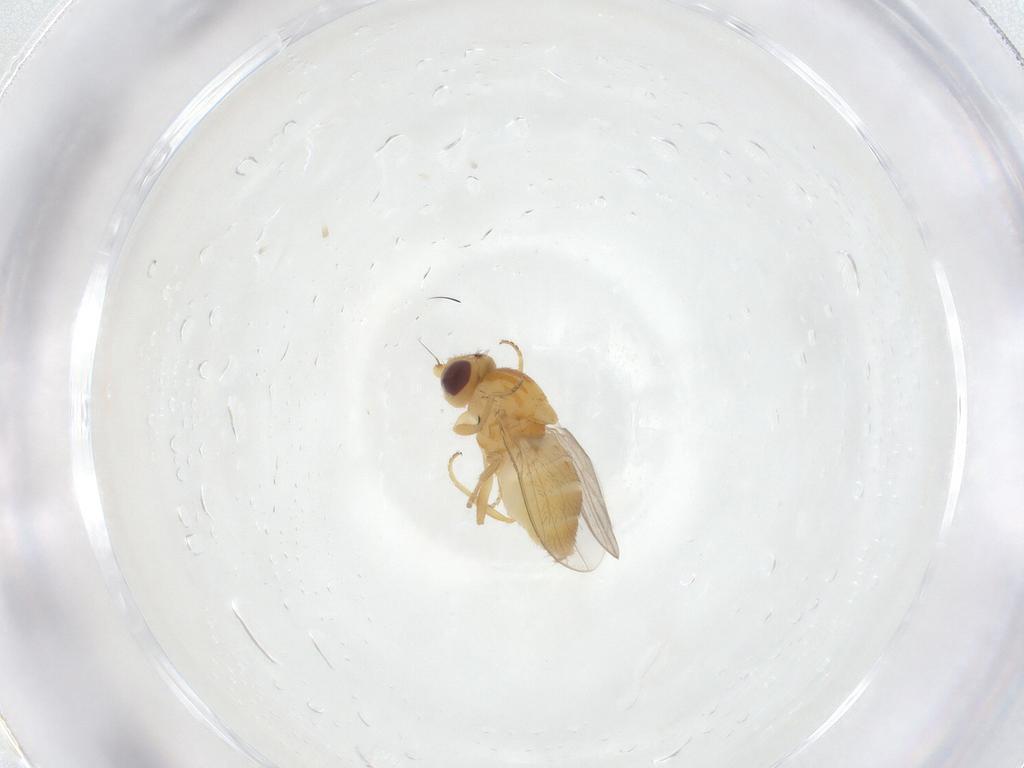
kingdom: Animalia
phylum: Arthropoda
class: Insecta
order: Diptera
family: Chloropidae
